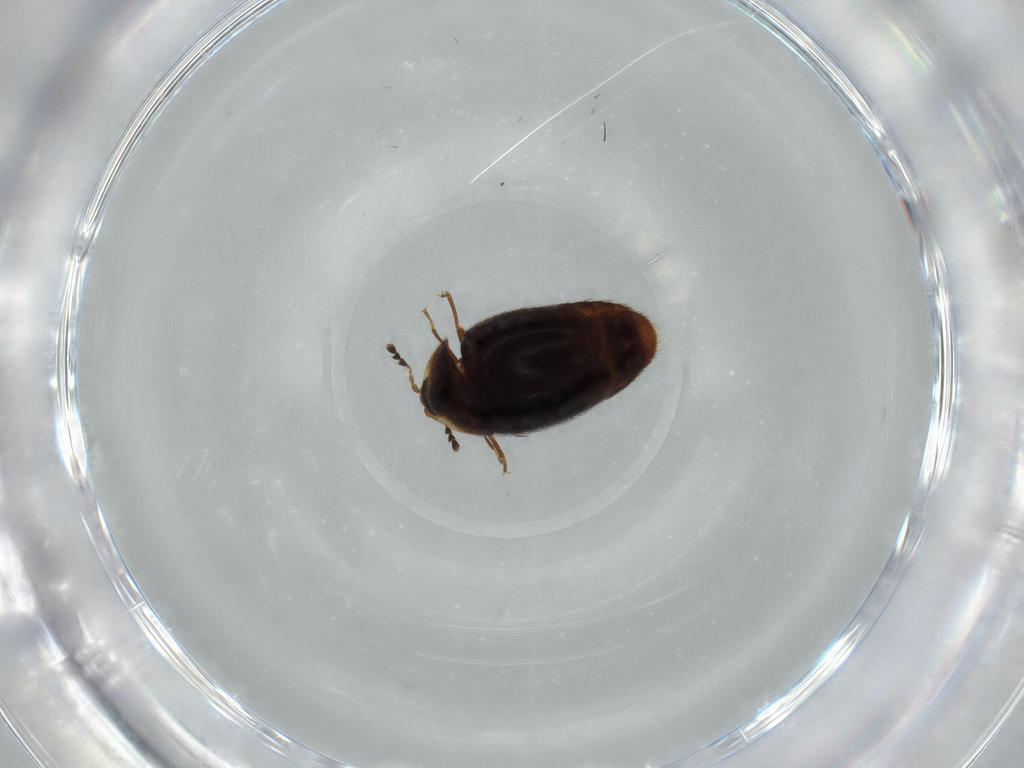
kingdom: Animalia
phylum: Arthropoda
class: Insecta
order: Coleoptera
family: Corylophidae
